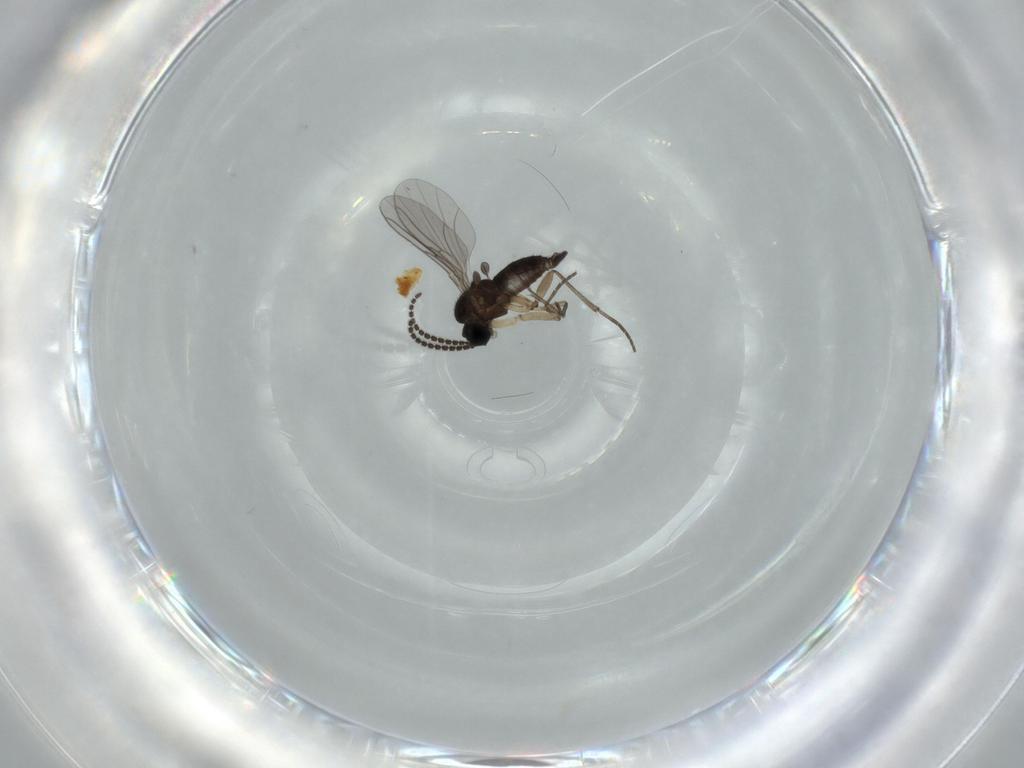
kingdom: Animalia
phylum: Arthropoda
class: Insecta
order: Diptera
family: Sciaridae
